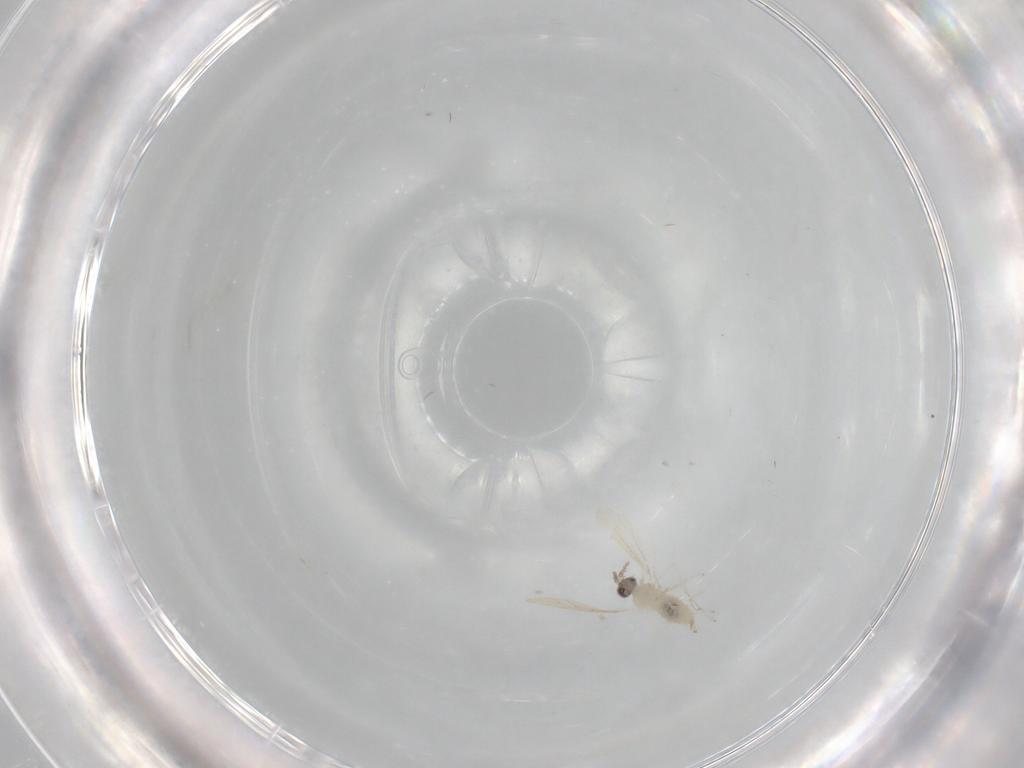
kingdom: Animalia
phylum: Arthropoda
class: Insecta
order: Diptera
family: Cecidomyiidae
